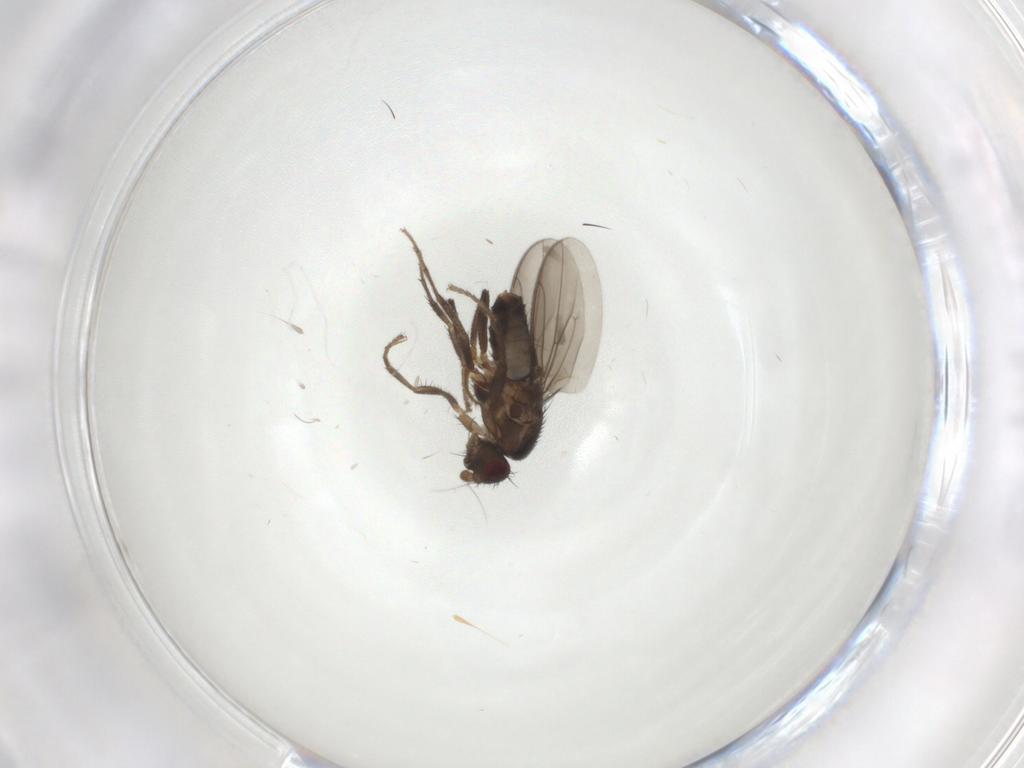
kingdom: Animalia
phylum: Arthropoda
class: Insecta
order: Diptera
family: Sphaeroceridae
